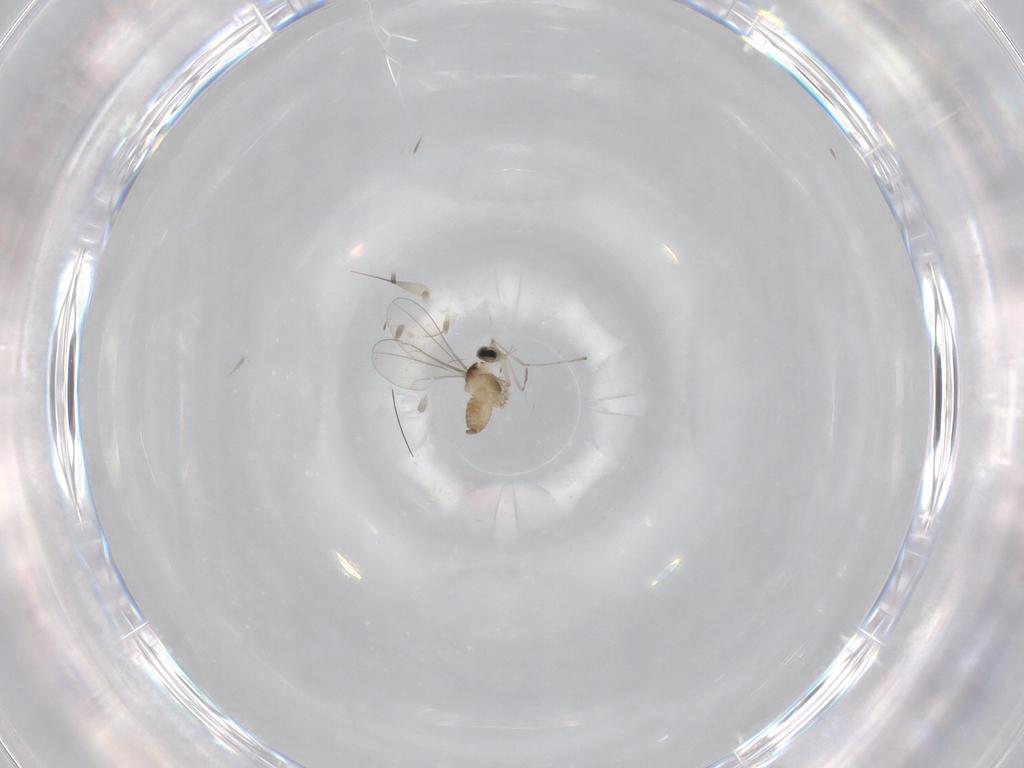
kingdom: Animalia
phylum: Arthropoda
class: Insecta
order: Diptera
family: Cecidomyiidae
